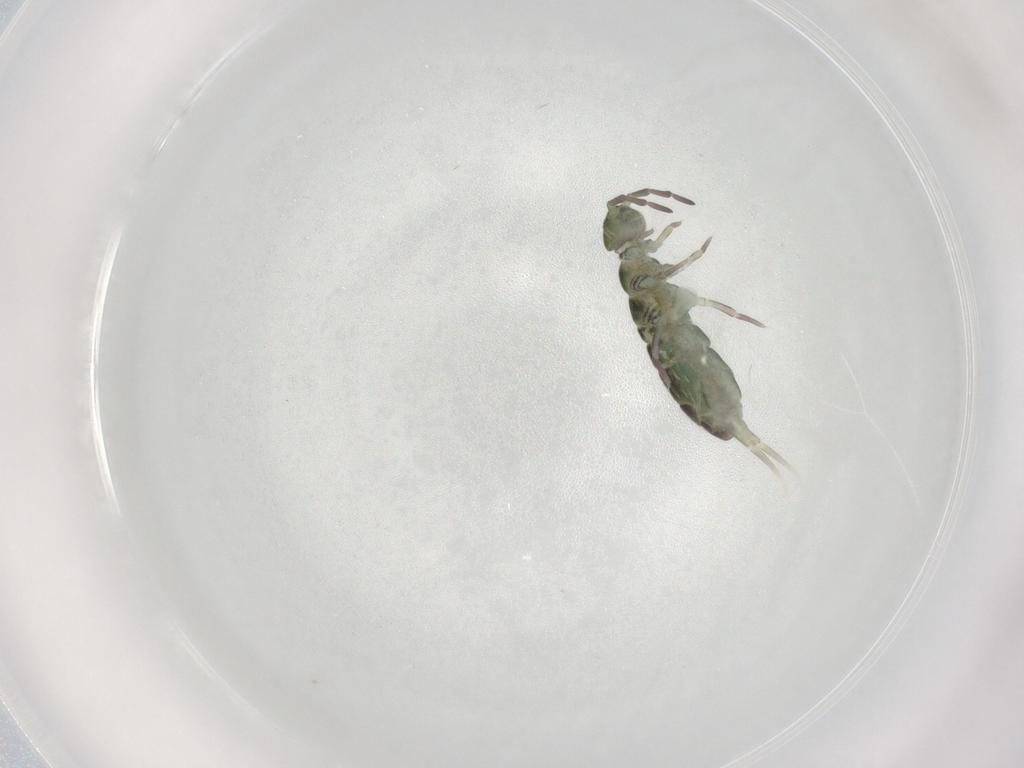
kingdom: Animalia
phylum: Arthropoda
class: Collembola
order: Entomobryomorpha
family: Isotomidae
